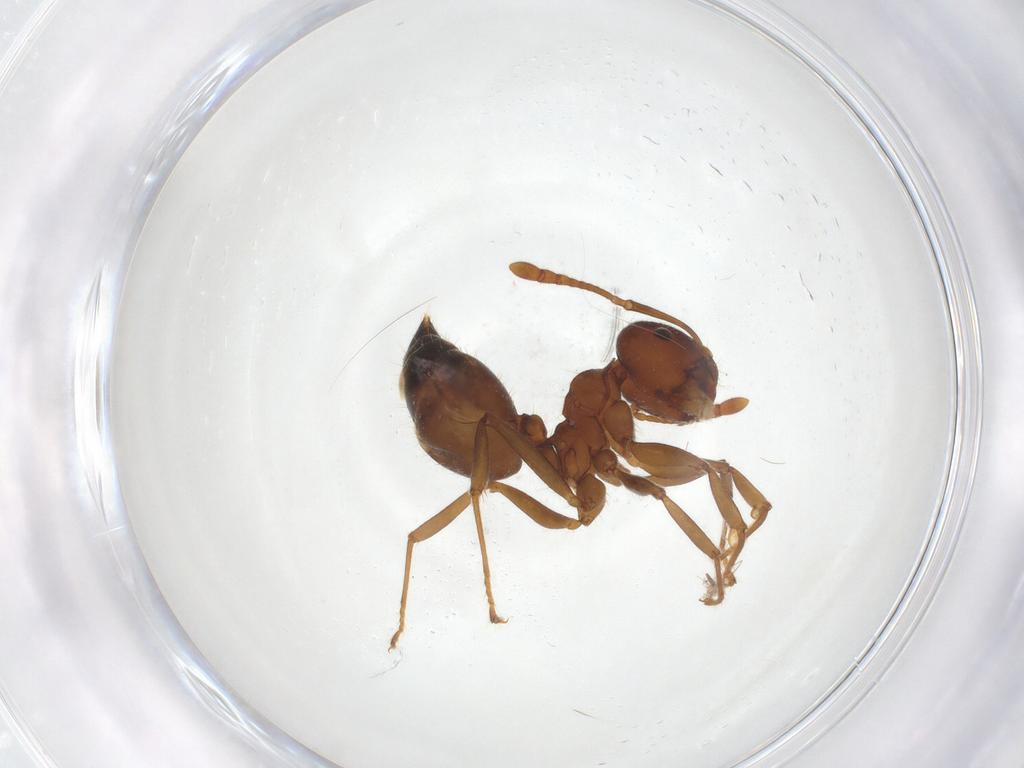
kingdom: Animalia
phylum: Arthropoda
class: Insecta
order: Hymenoptera
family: Formicidae
